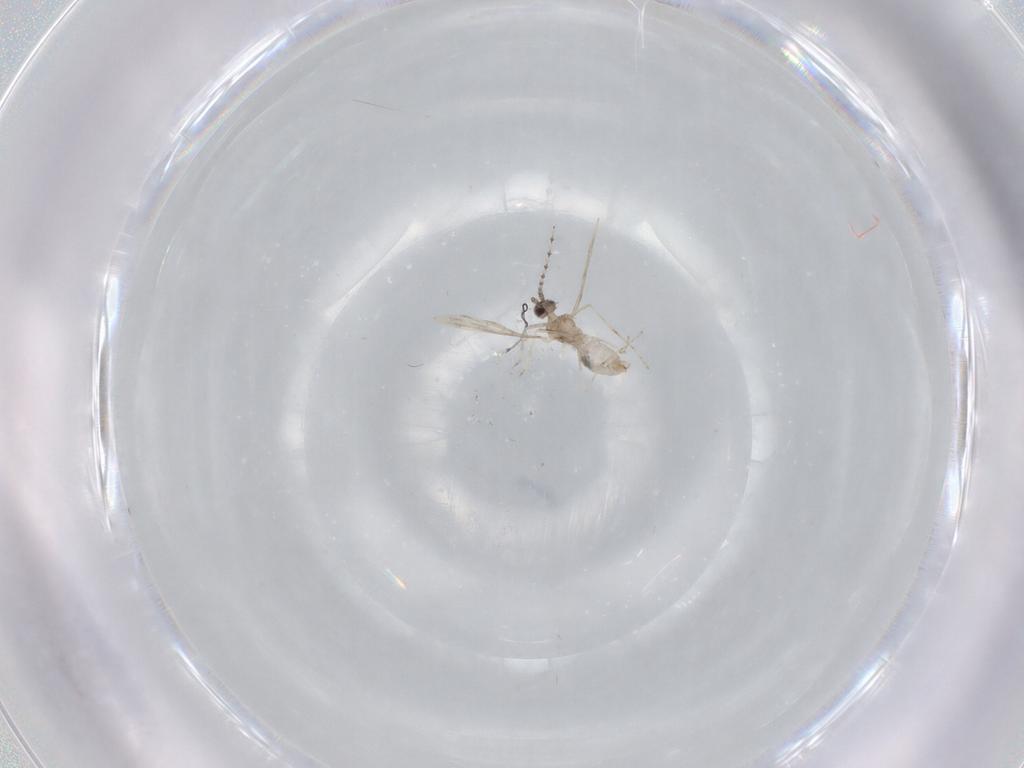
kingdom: Animalia
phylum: Arthropoda
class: Insecta
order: Diptera
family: Cecidomyiidae
